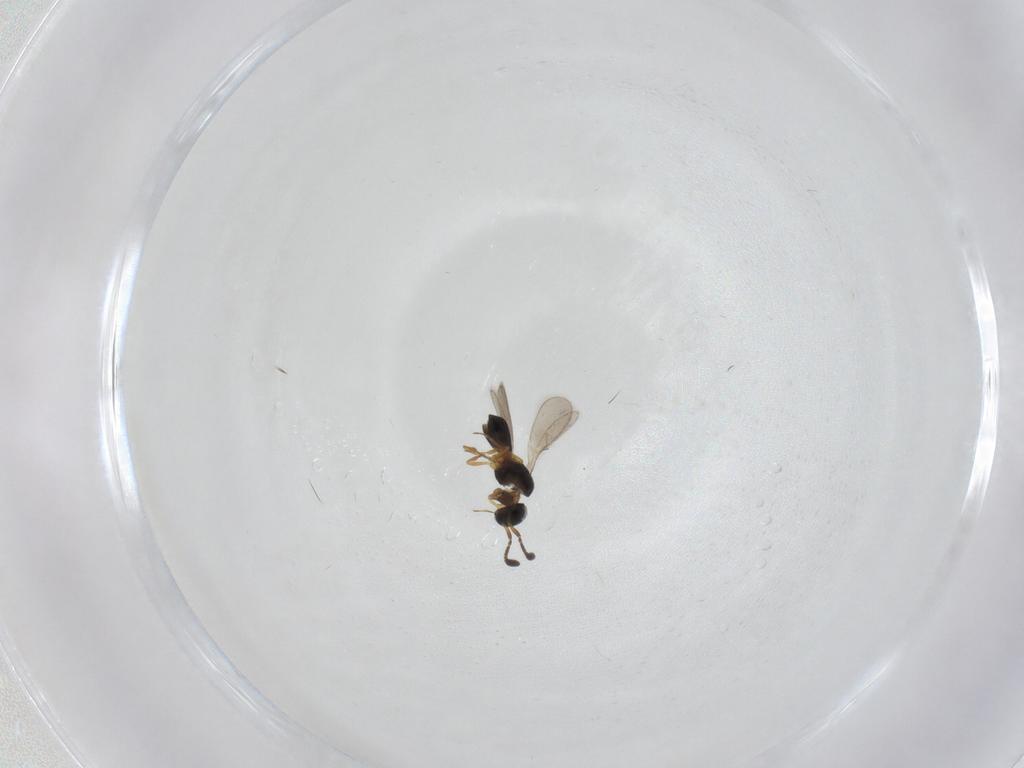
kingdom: Animalia
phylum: Arthropoda
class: Insecta
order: Hymenoptera
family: Scelionidae
